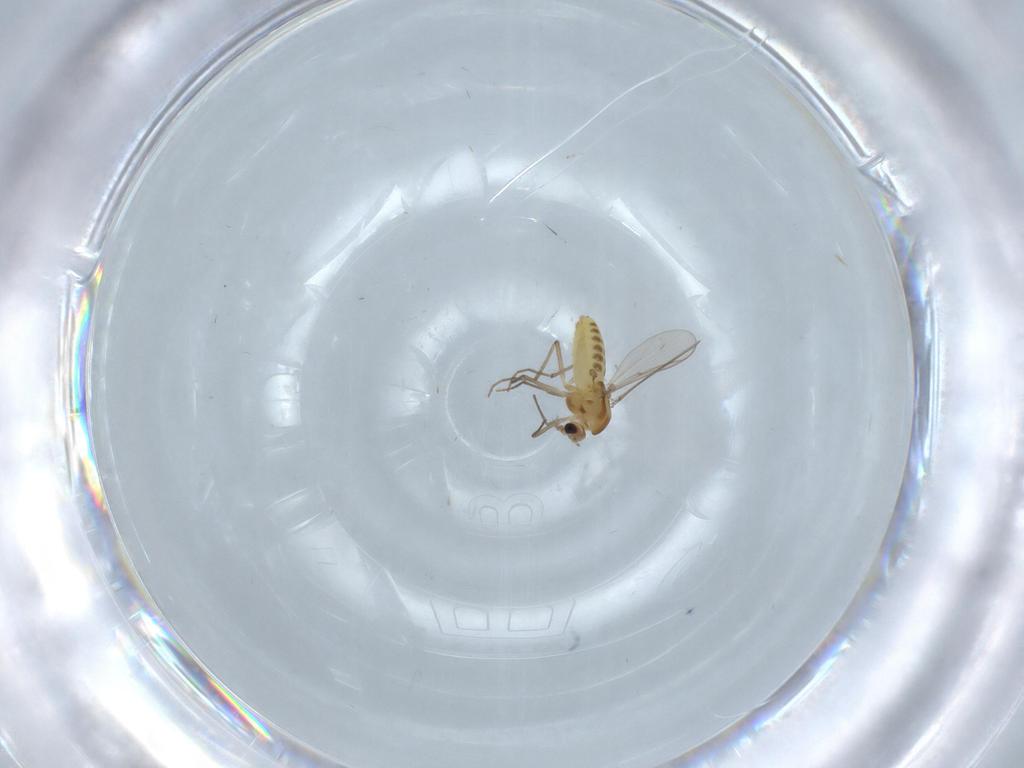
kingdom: Animalia
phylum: Arthropoda
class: Insecta
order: Diptera
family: Chironomidae
